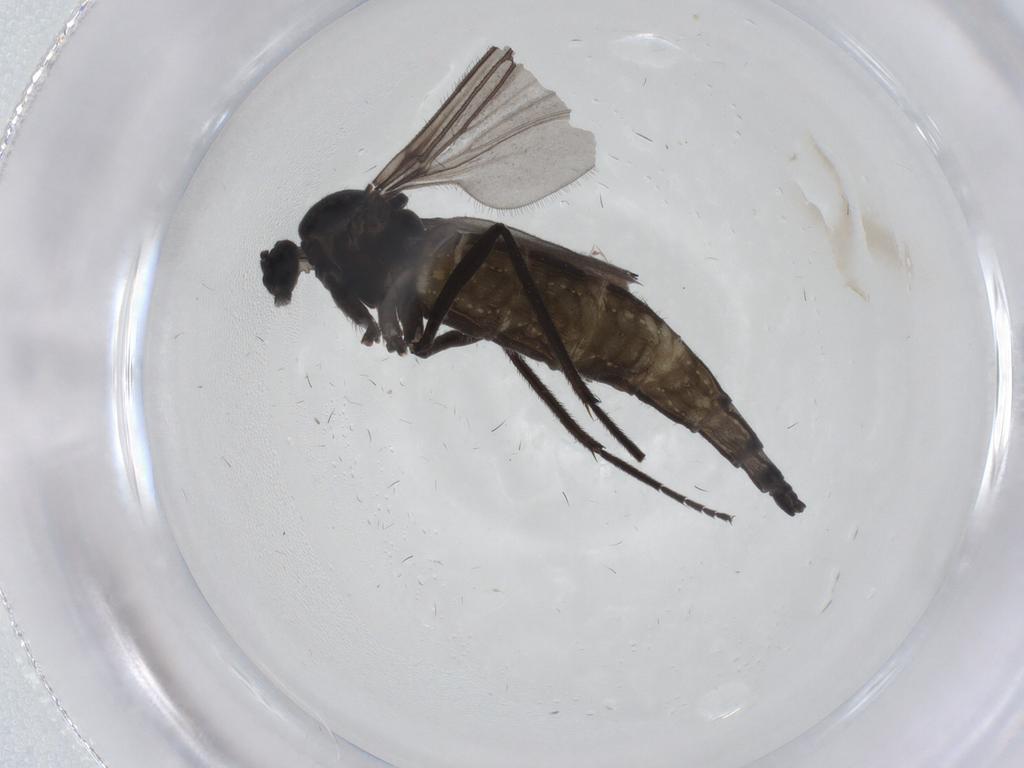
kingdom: Animalia
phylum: Arthropoda
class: Insecta
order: Diptera
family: Sciaridae
